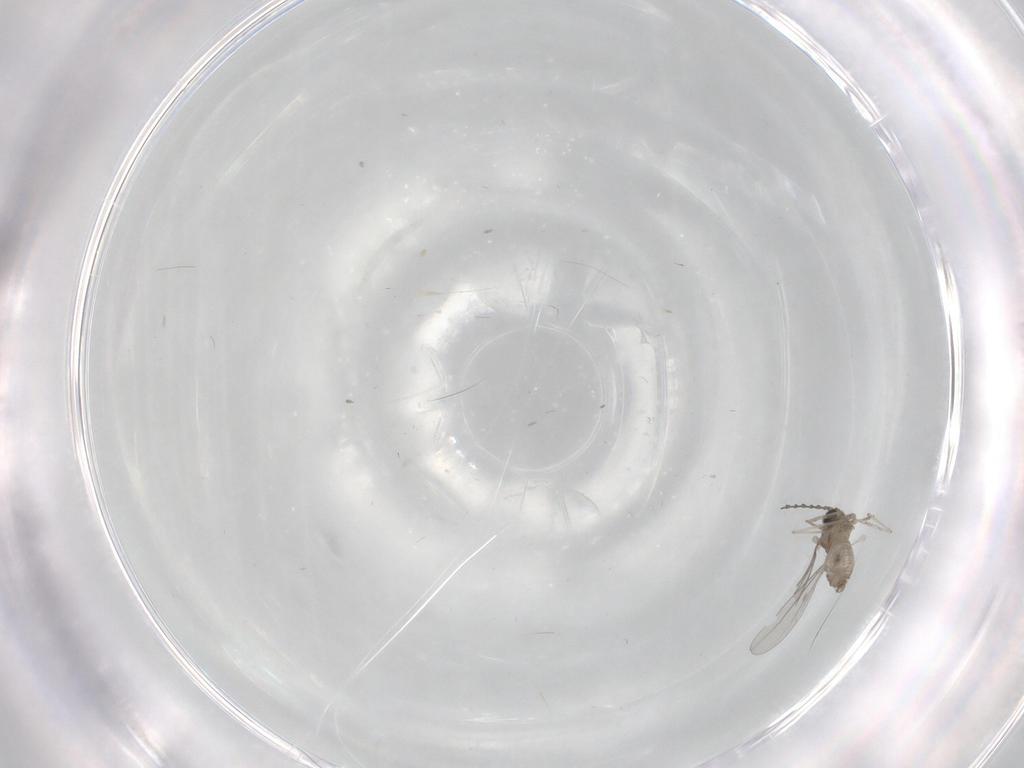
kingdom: Animalia
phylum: Arthropoda
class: Insecta
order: Diptera
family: Cecidomyiidae
